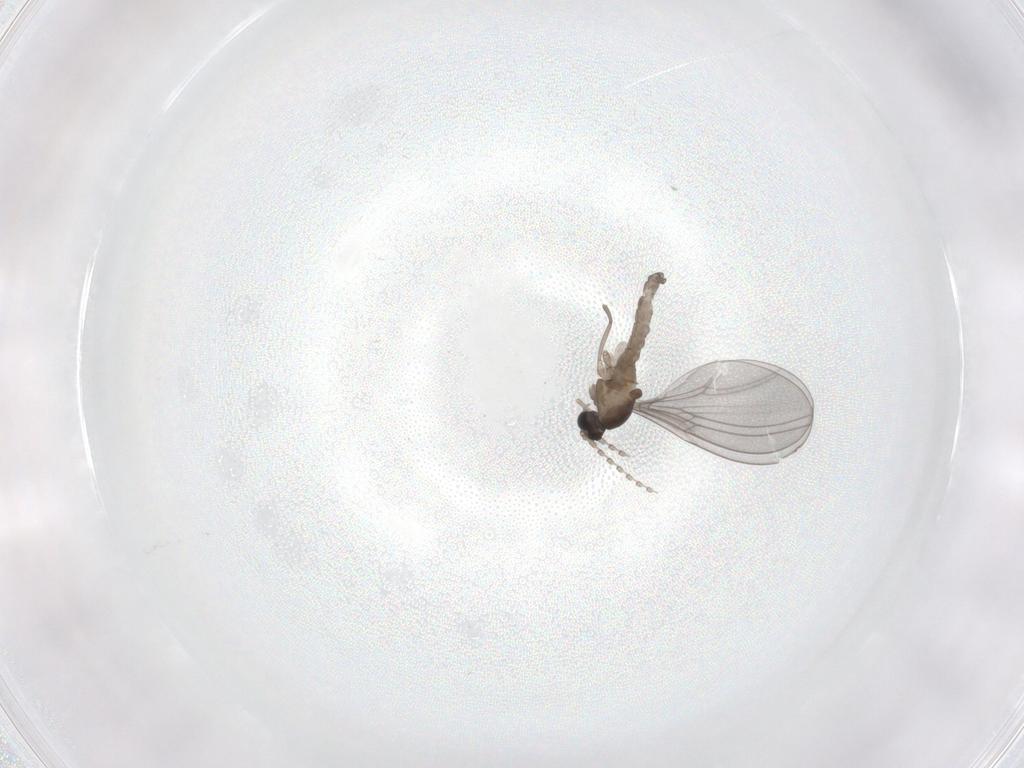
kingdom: Animalia
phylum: Arthropoda
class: Insecta
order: Diptera
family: Cecidomyiidae
